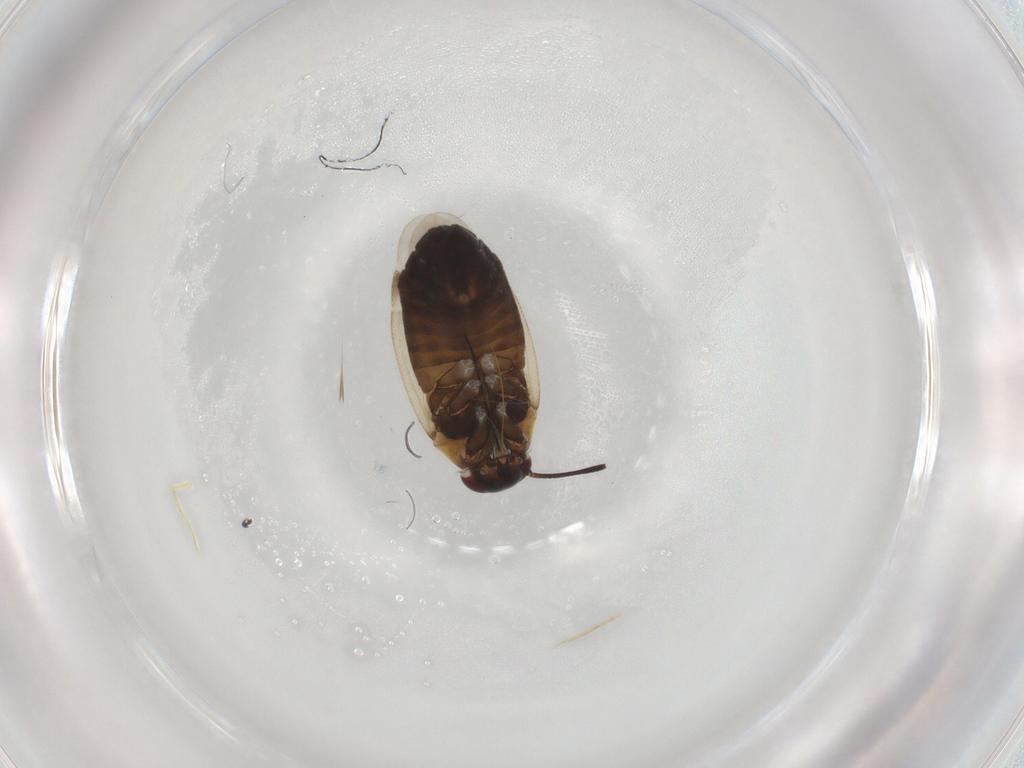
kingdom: Animalia
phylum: Arthropoda
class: Insecta
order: Hemiptera
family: Miridae
